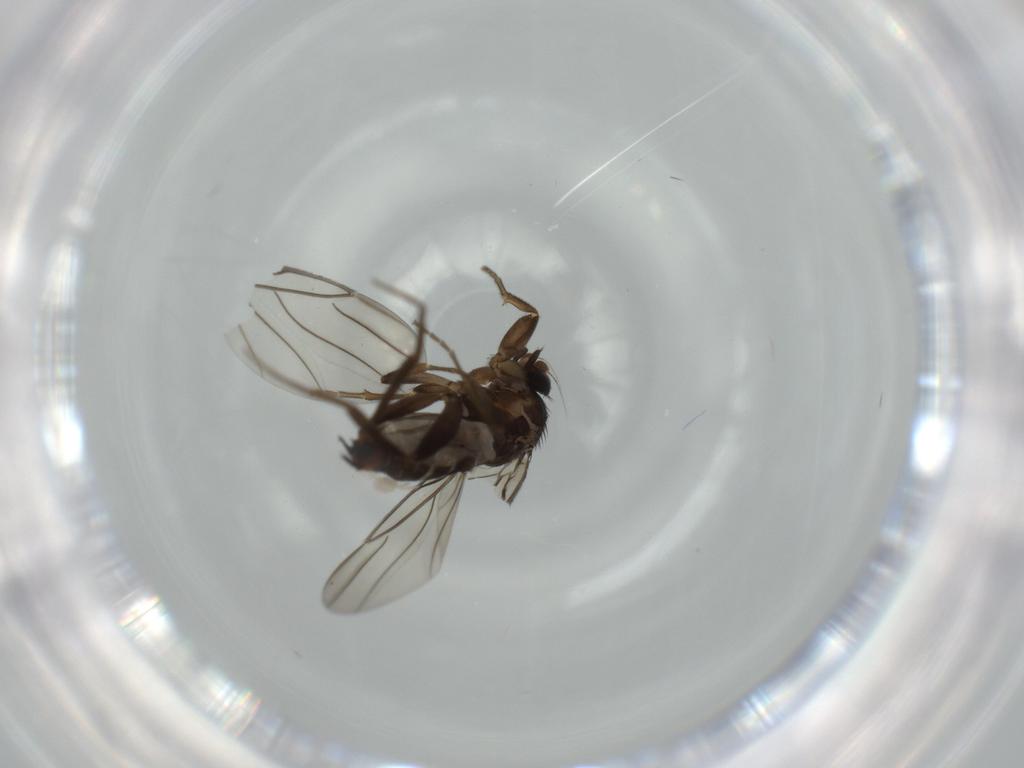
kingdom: Animalia
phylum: Arthropoda
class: Insecta
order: Diptera
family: Sciaridae
